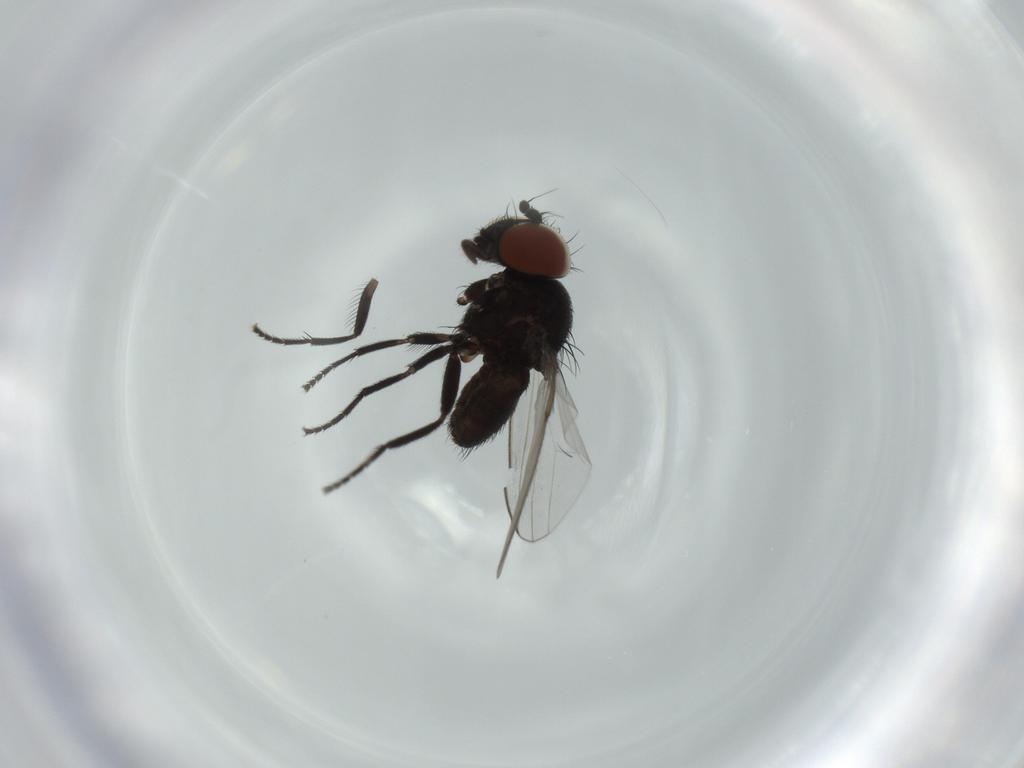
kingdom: Animalia
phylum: Arthropoda
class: Insecta
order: Diptera
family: Milichiidae
